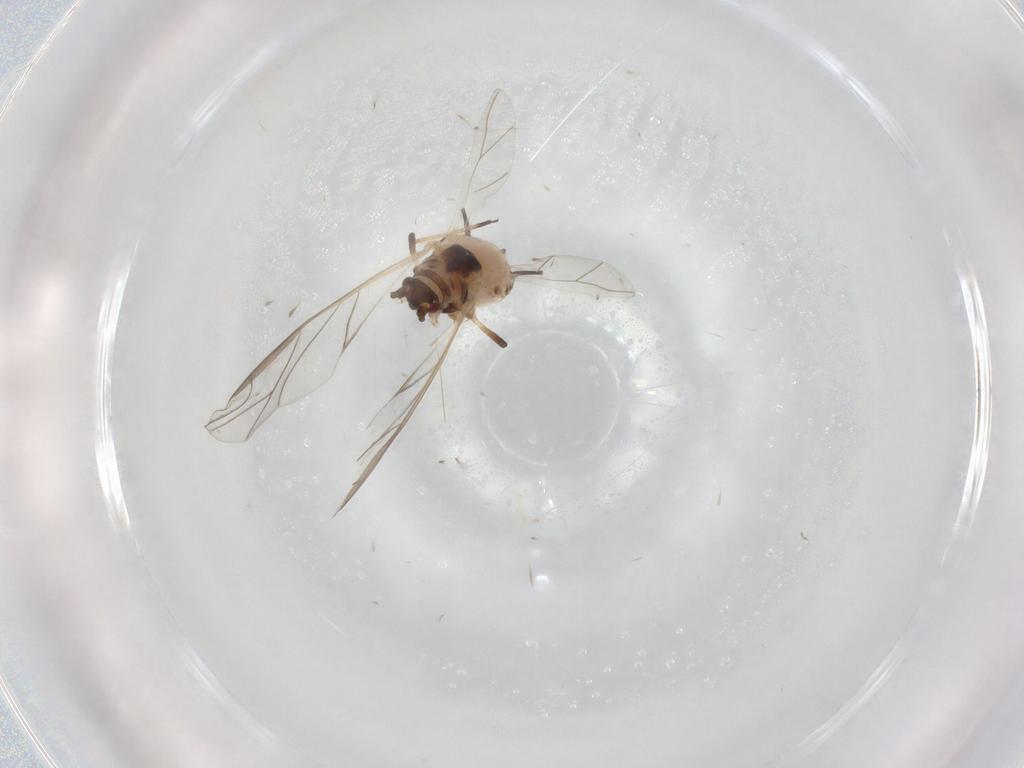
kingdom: Animalia
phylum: Arthropoda
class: Insecta
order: Hemiptera
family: Aphididae
